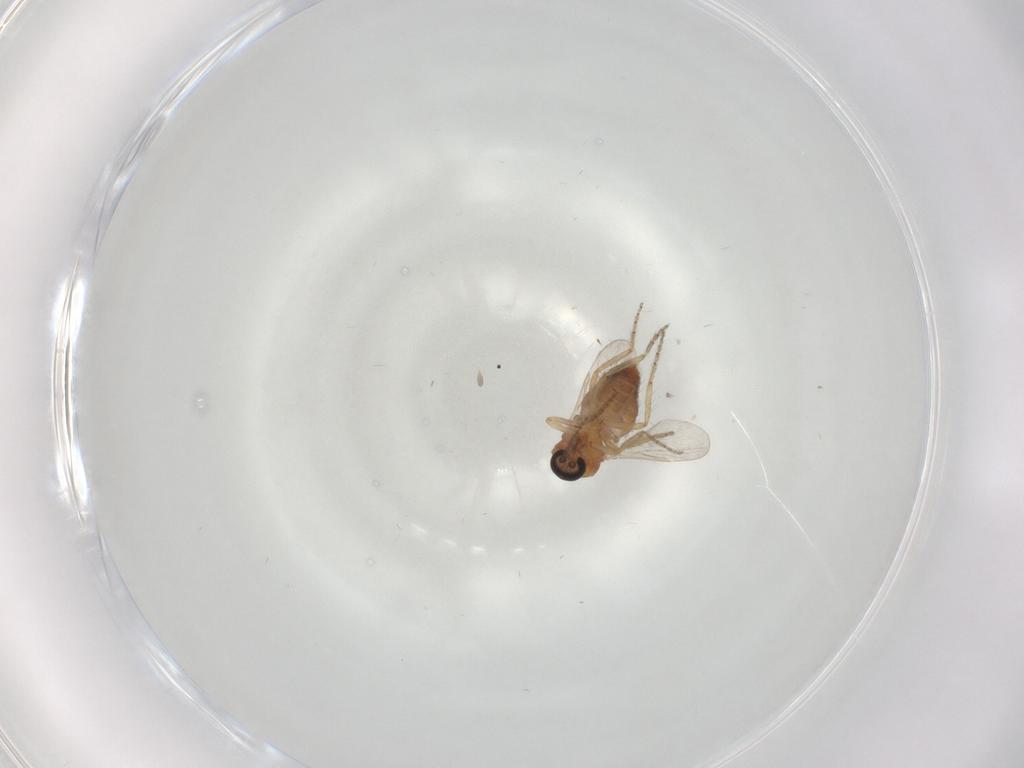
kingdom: Animalia
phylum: Arthropoda
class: Insecta
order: Diptera
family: Ceratopogonidae
